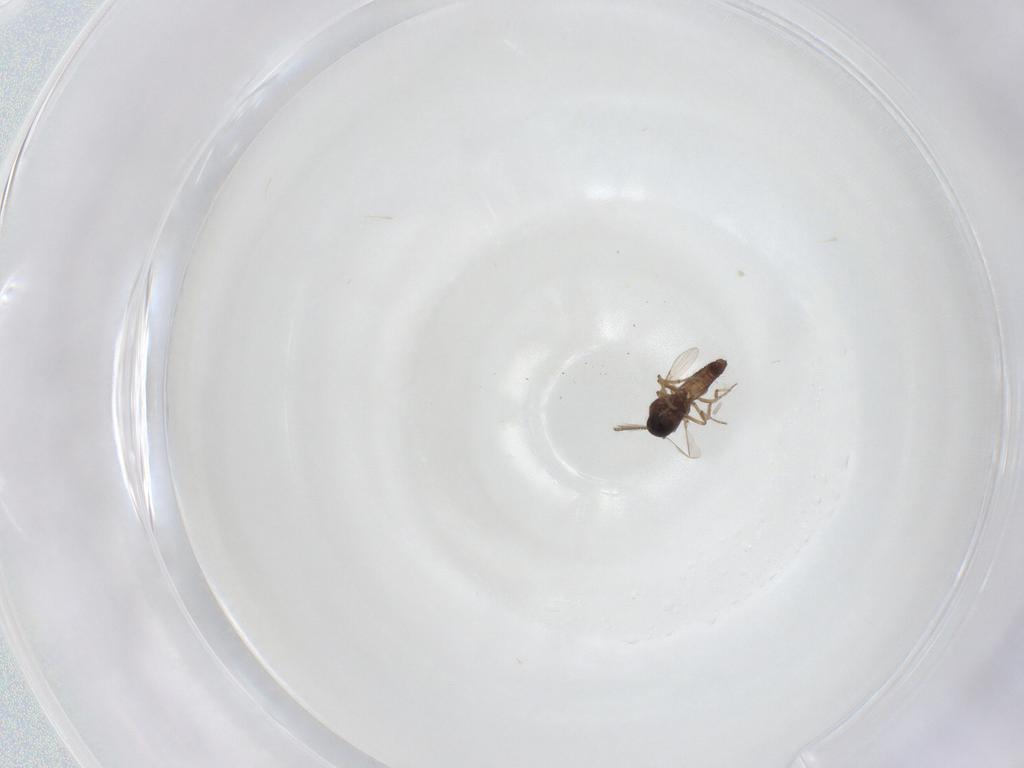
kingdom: Animalia
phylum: Arthropoda
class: Insecta
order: Diptera
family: Ceratopogonidae
